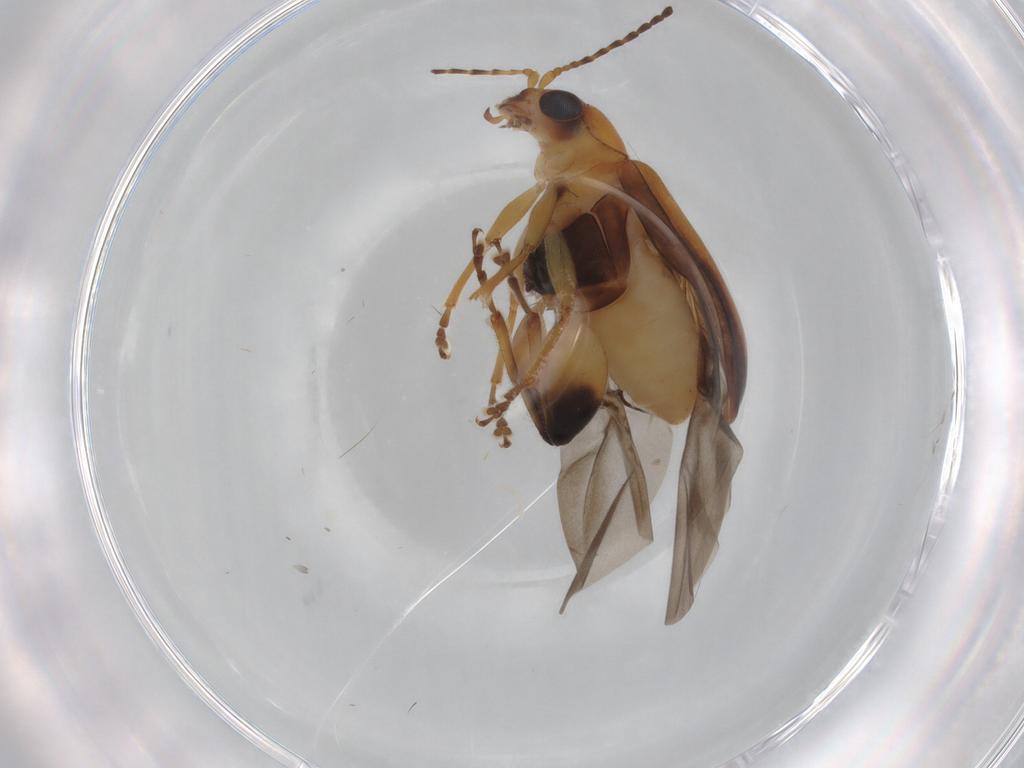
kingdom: Animalia
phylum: Arthropoda
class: Insecta
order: Coleoptera
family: Chrysomelidae
